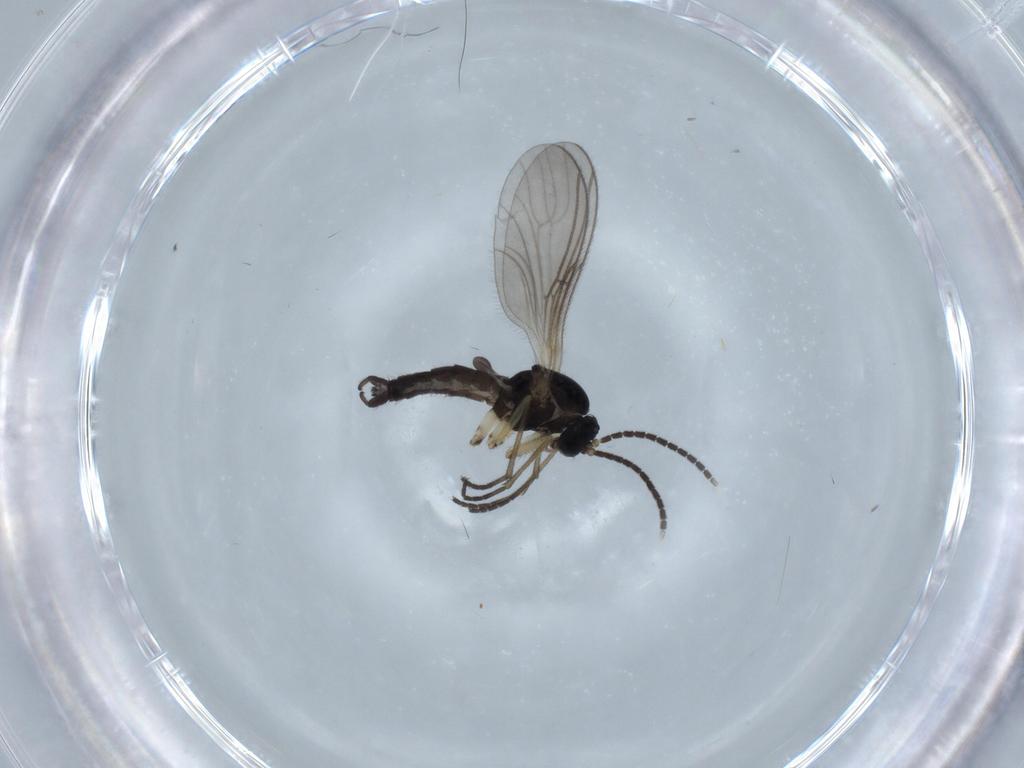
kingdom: Animalia
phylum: Arthropoda
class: Insecta
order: Diptera
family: Sciaridae
